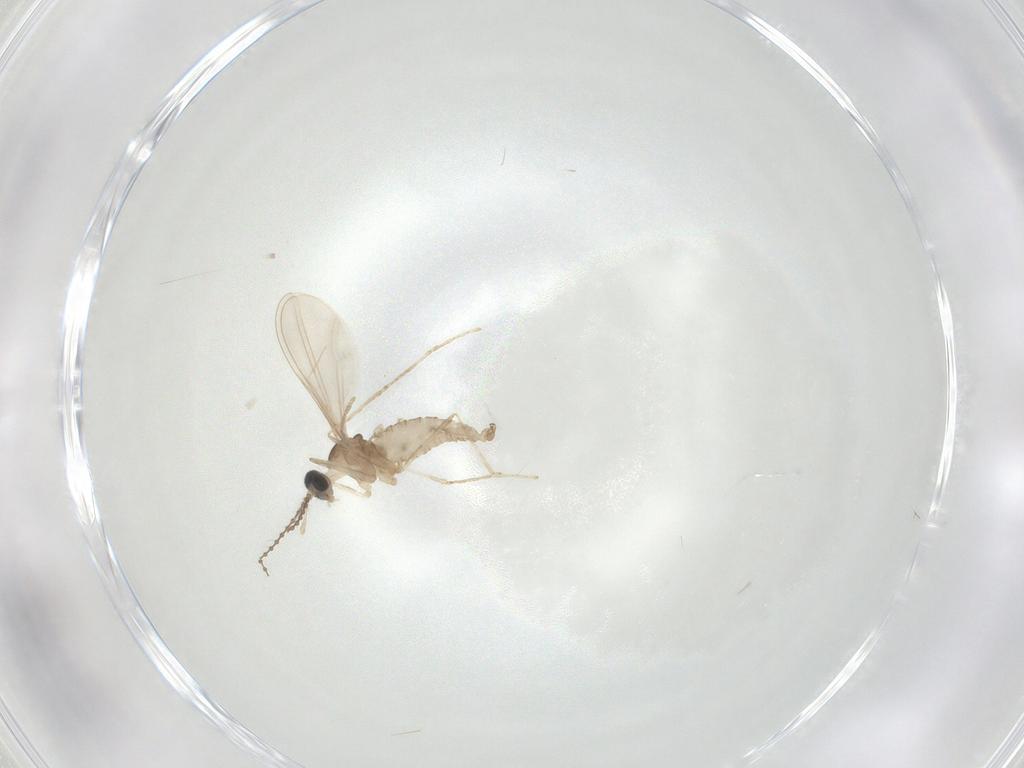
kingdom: Animalia
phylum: Arthropoda
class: Insecta
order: Diptera
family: Cecidomyiidae
